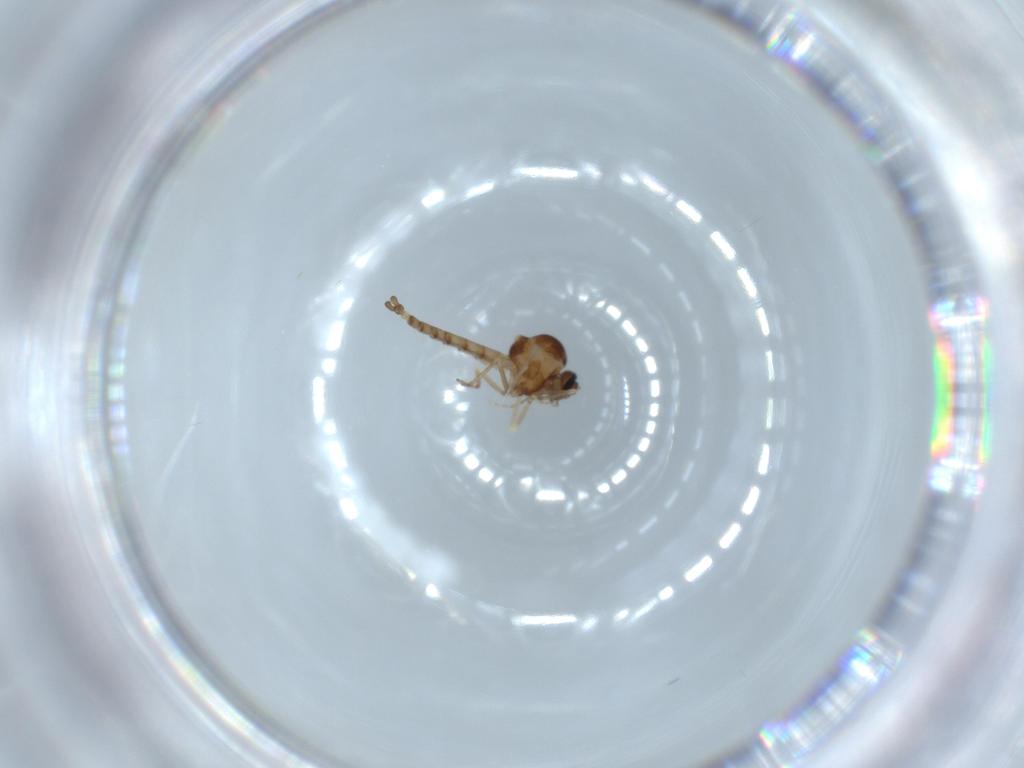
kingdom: Animalia
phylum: Arthropoda
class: Insecta
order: Diptera
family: Ceratopogonidae
